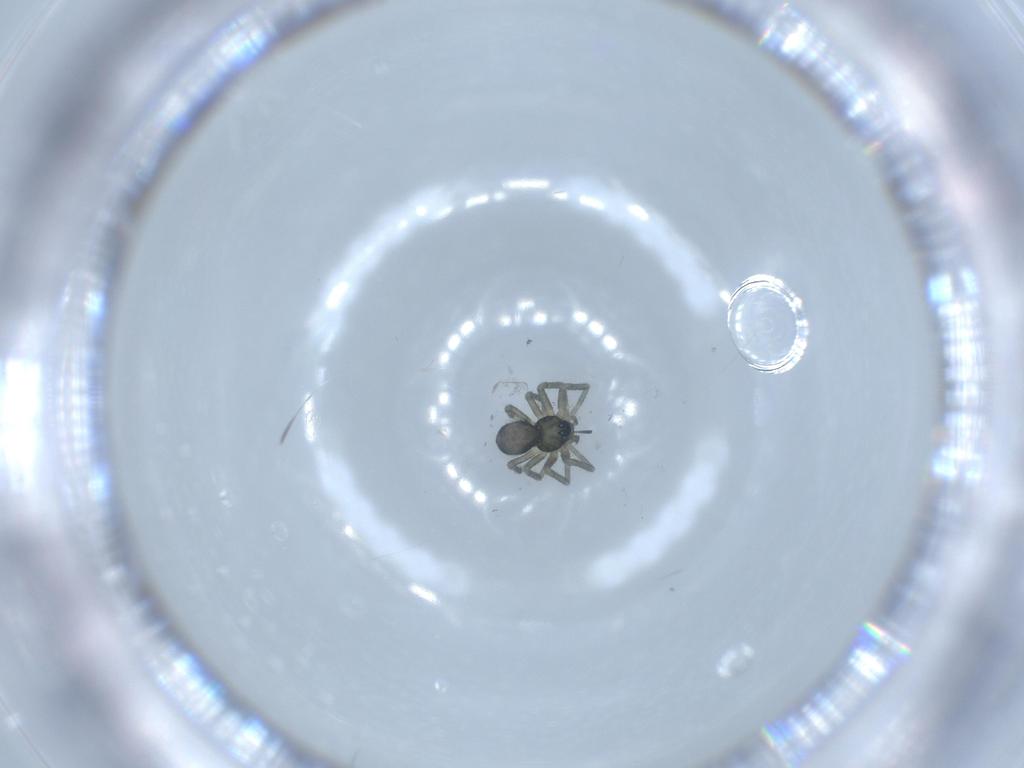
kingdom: Animalia
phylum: Arthropoda
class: Arachnida
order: Araneae
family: Linyphiidae
